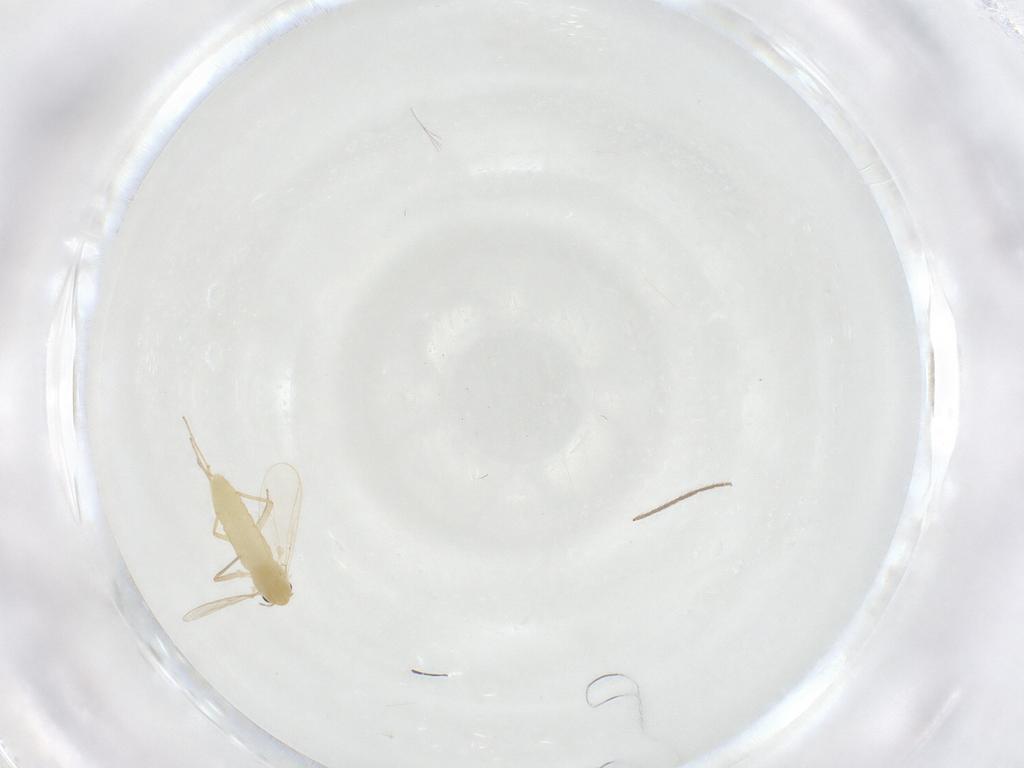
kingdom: Animalia
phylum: Arthropoda
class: Insecta
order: Diptera
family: Chironomidae
